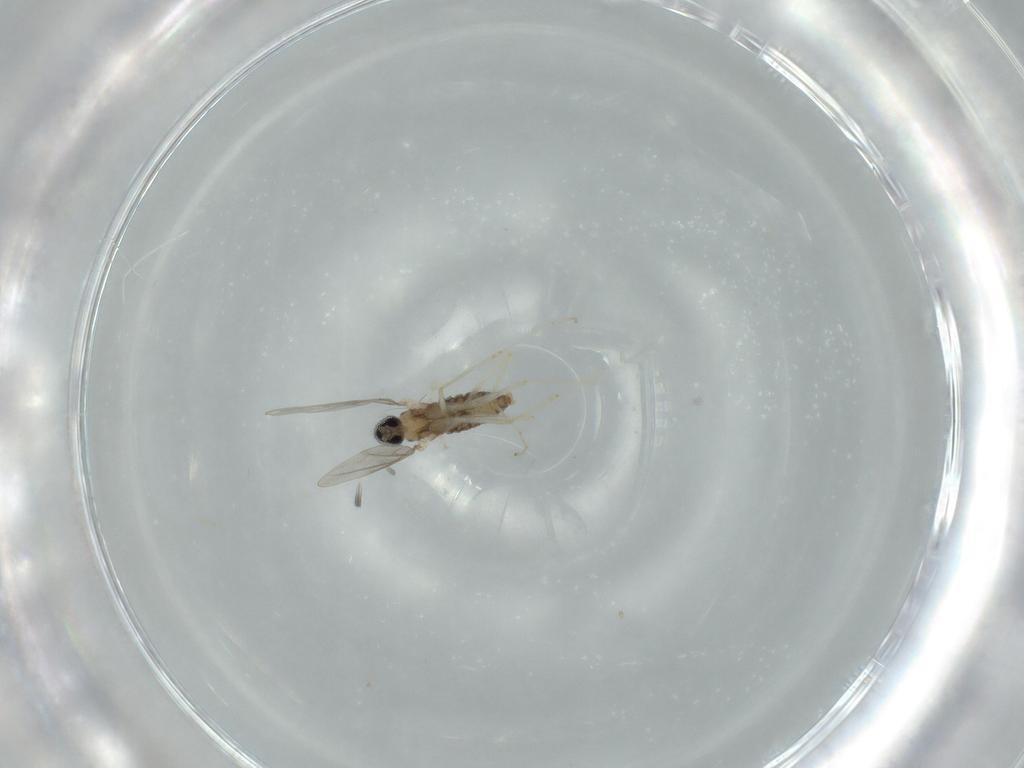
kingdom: Animalia
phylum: Arthropoda
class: Insecta
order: Diptera
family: Cecidomyiidae
